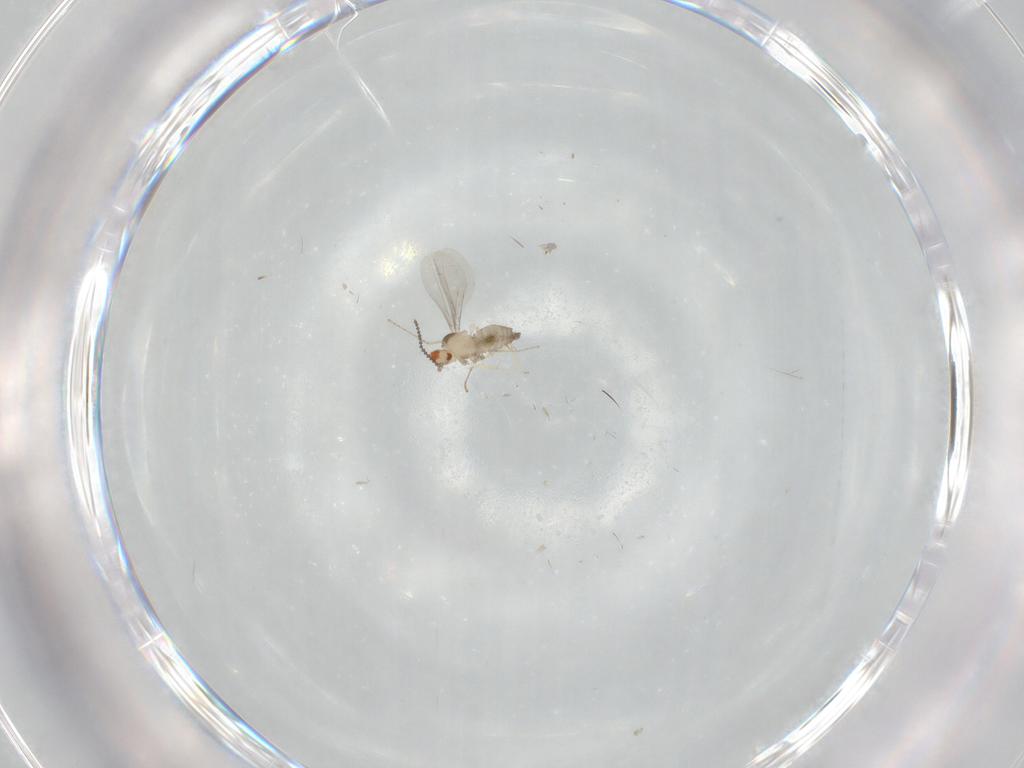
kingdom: Animalia
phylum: Arthropoda
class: Insecta
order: Diptera
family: Cecidomyiidae
